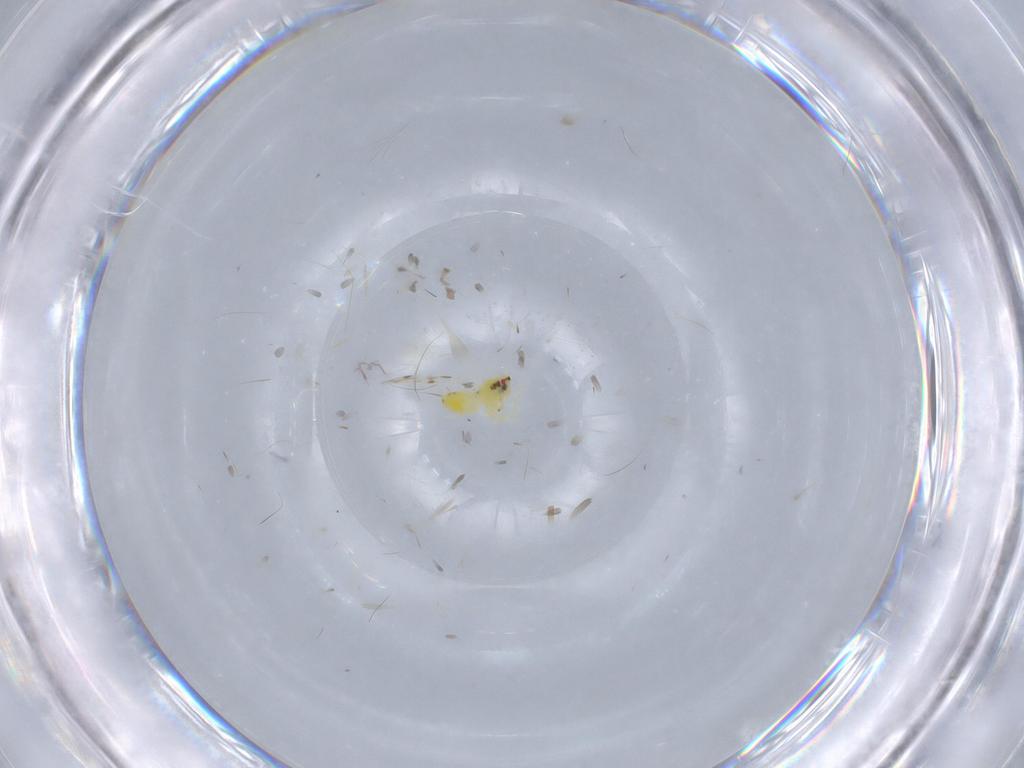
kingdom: Animalia
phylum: Arthropoda
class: Insecta
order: Hemiptera
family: Aleyrodidae
